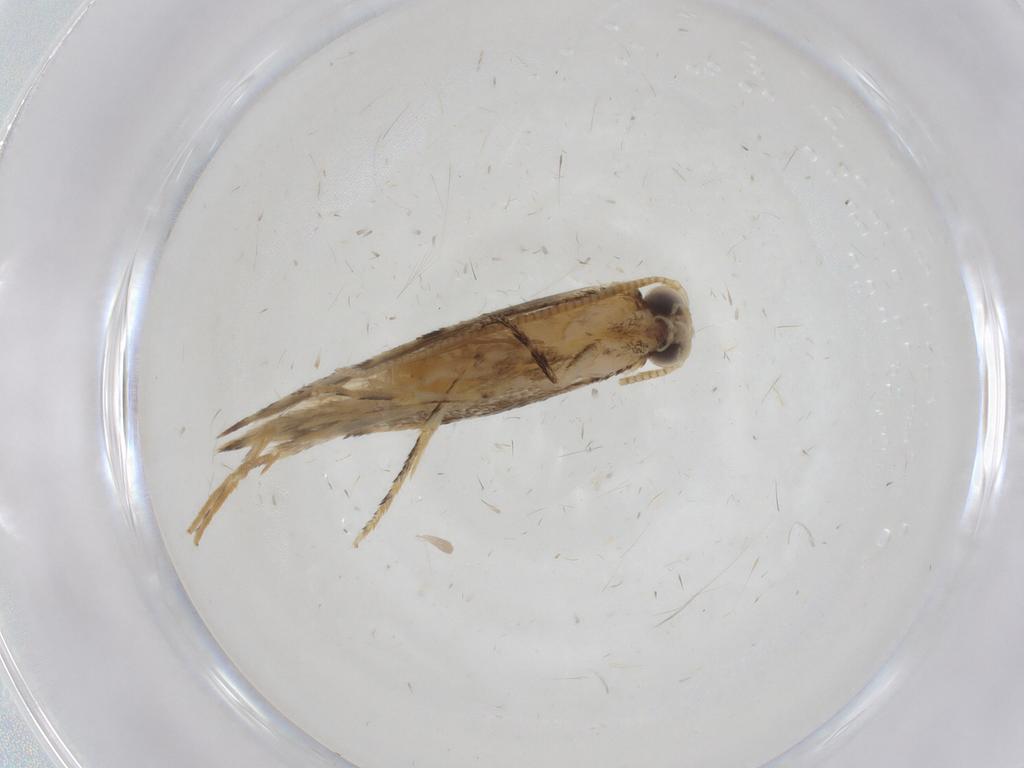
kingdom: Animalia
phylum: Arthropoda
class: Insecta
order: Lepidoptera
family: Tineidae
